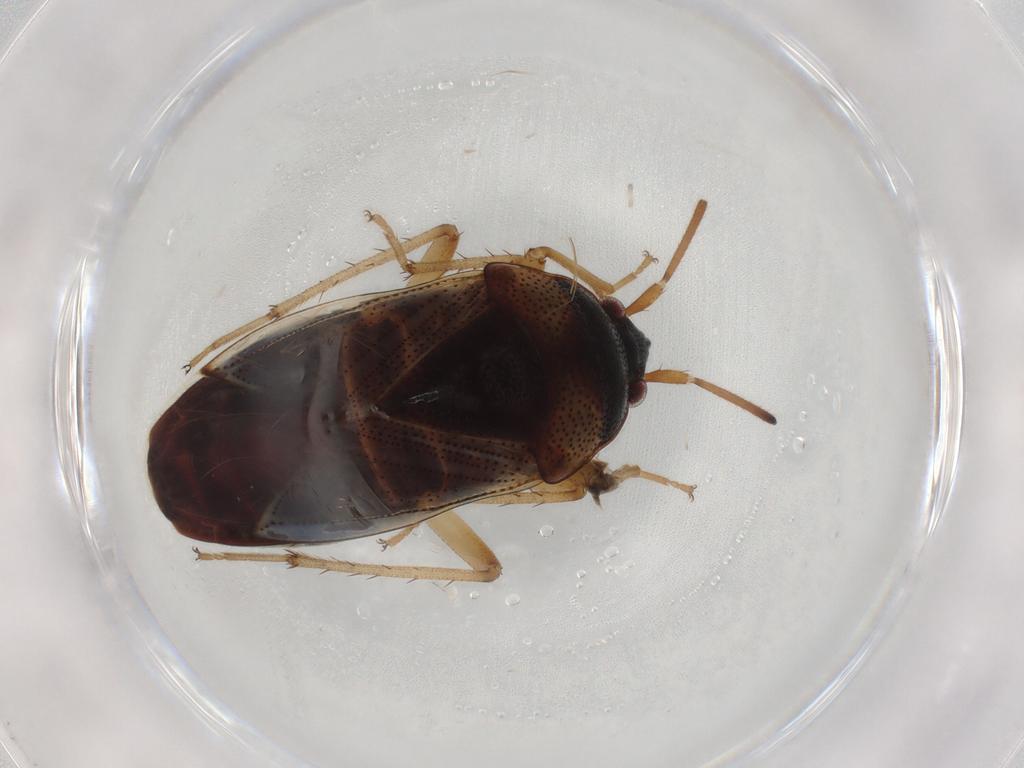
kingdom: Animalia
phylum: Arthropoda
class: Insecta
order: Hemiptera
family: Rhyparochromidae
